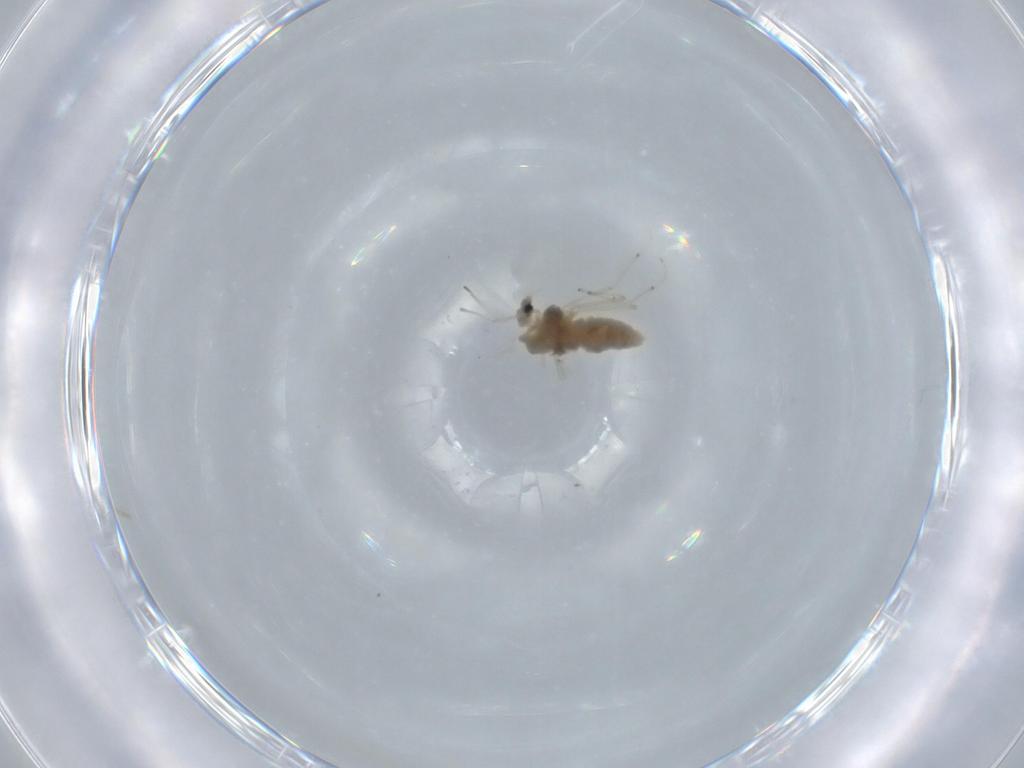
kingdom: Animalia
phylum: Arthropoda
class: Insecta
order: Diptera
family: Chironomidae
